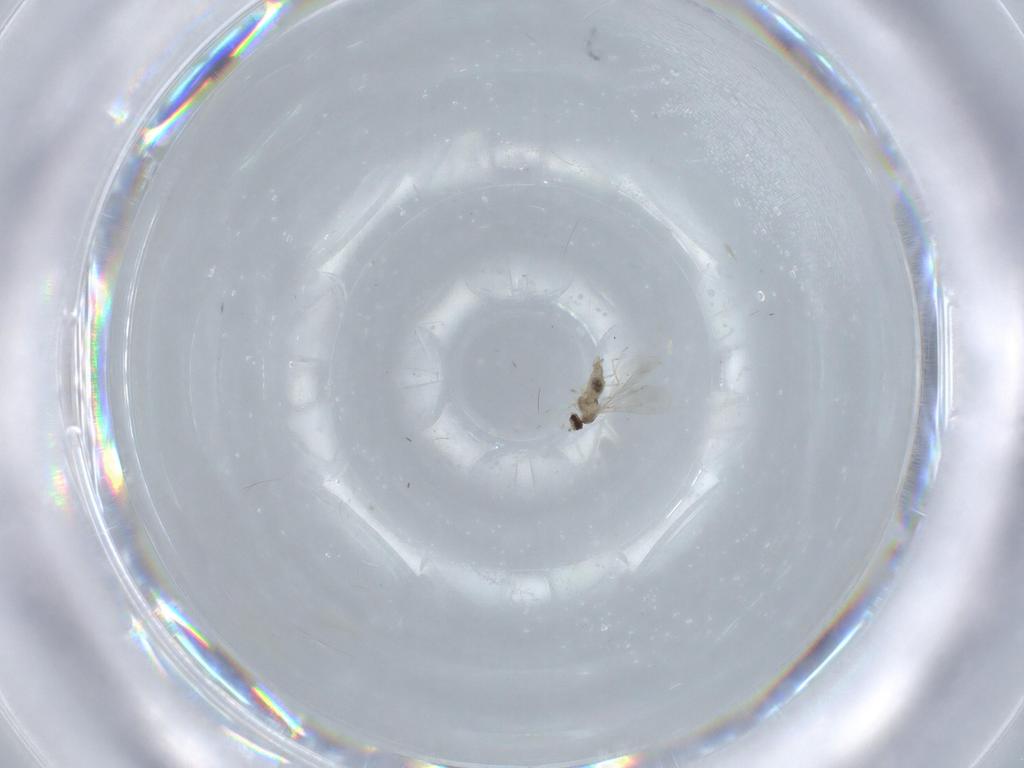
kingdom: Animalia
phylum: Arthropoda
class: Insecta
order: Diptera
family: Cecidomyiidae
